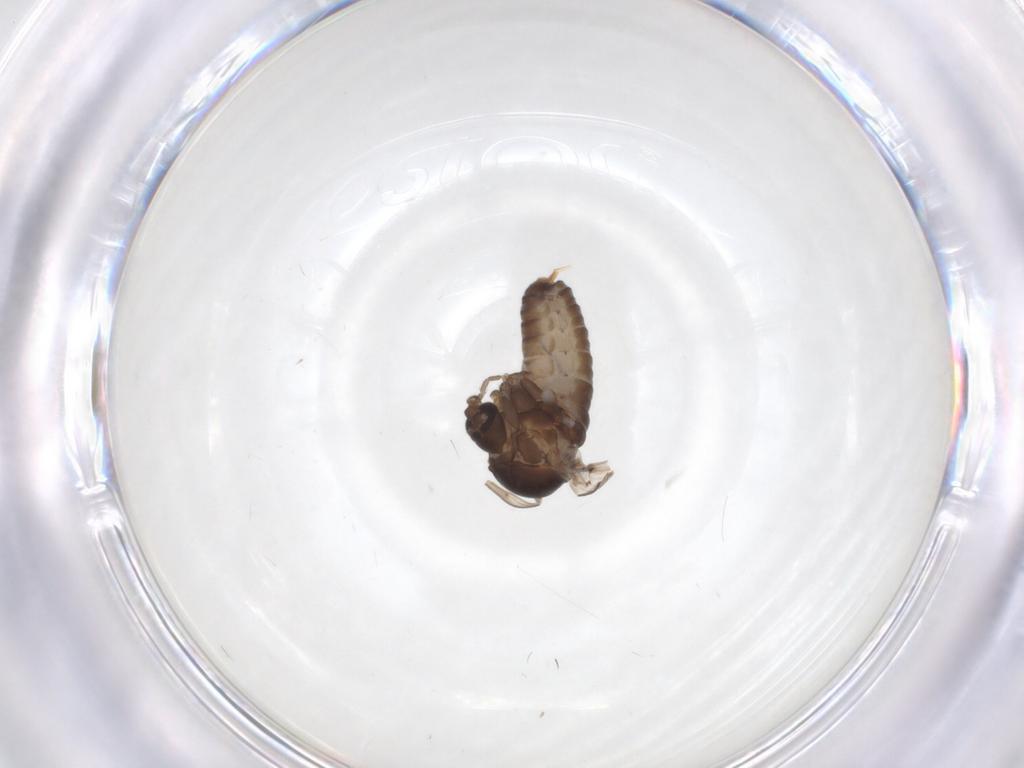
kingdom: Animalia
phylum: Arthropoda
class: Insecta
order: Diptera
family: Psychodidae
